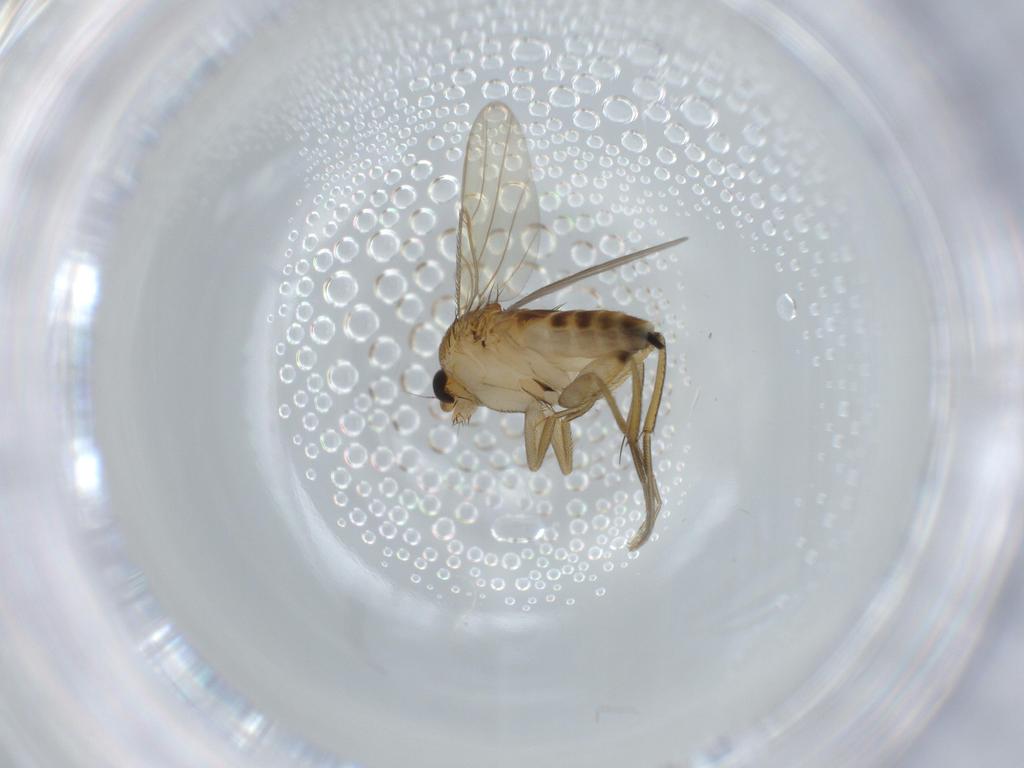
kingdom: Animalia
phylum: Arthropoda
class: Insecta
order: Diptera
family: Phoridae
